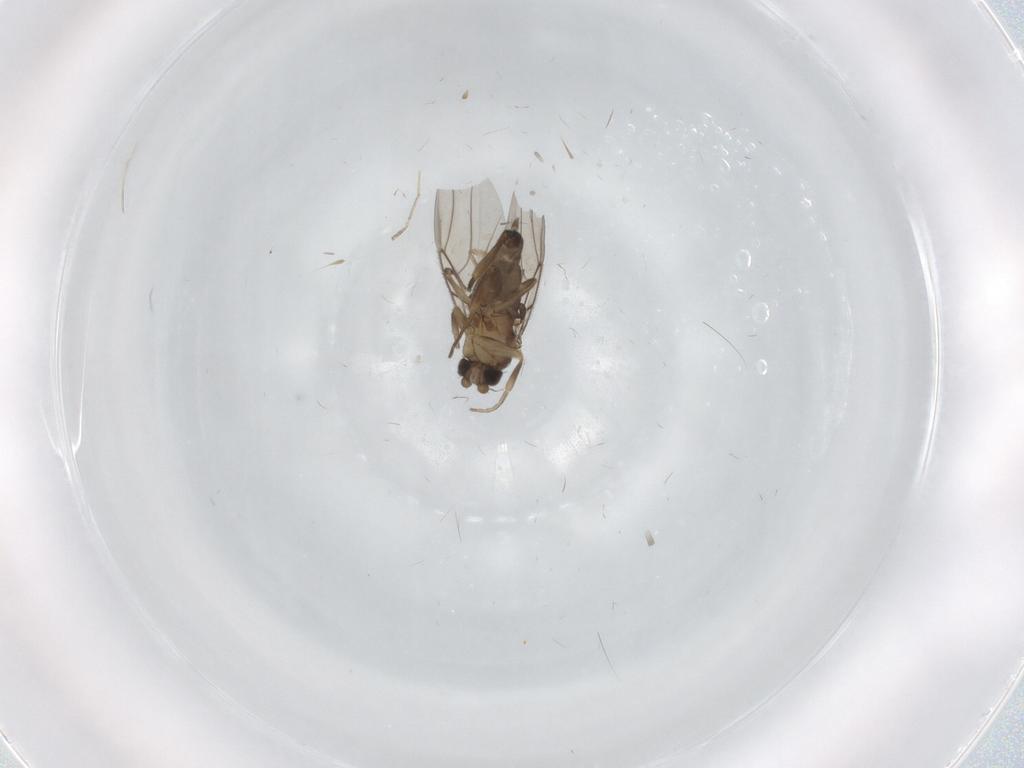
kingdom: Animalia
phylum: Arthropoda
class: Insecta
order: Diptera
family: Phoridae
